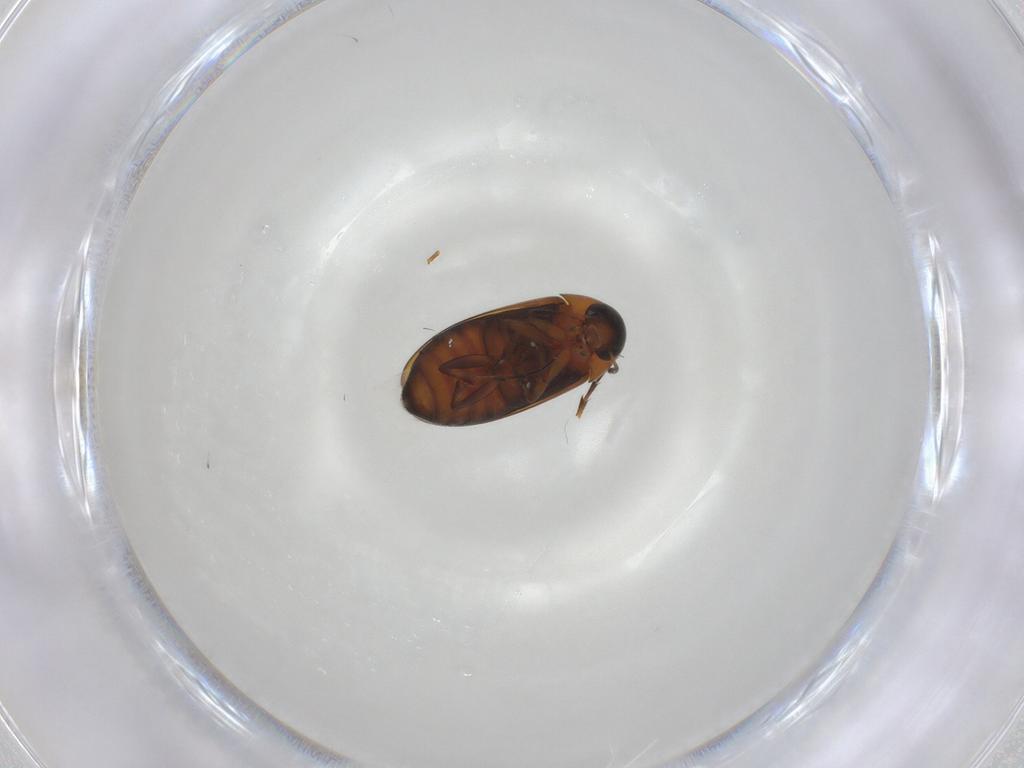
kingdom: Animalia
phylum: Arthropoda
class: Insecta
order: Coleoptera
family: Scraptiidae
